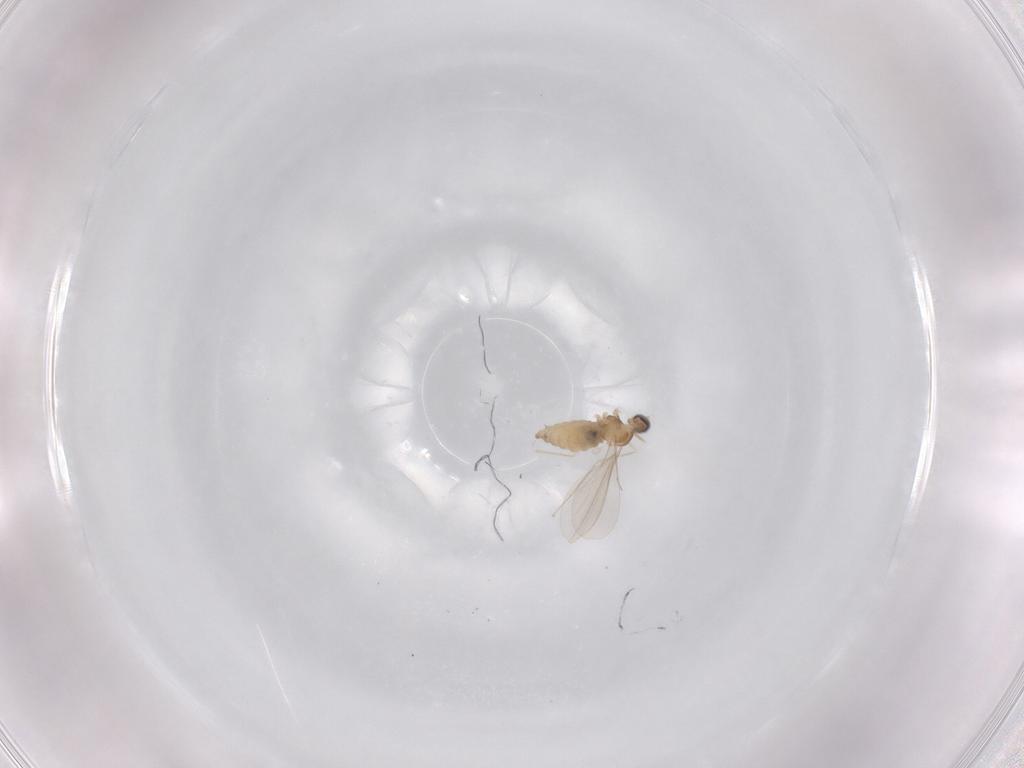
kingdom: Animalia
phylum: Arthropoda
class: Insecta
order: Diptera
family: Cecidomyiidae
